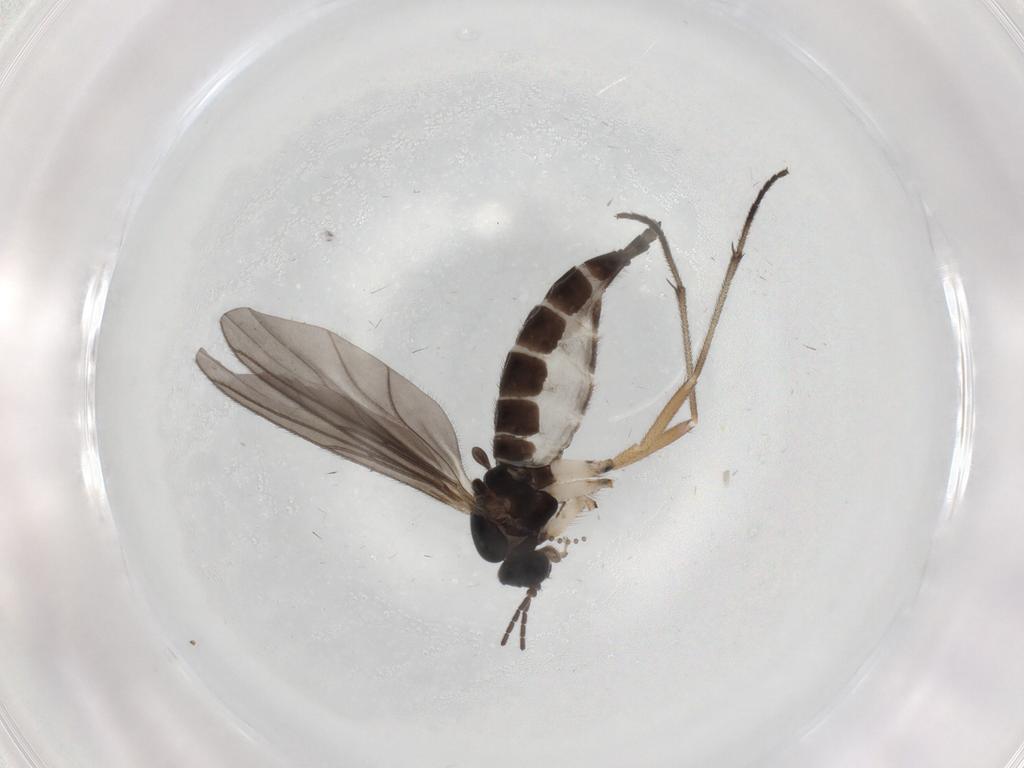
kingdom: Animalia
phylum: Arthropoda
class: Insecta
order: Diptera
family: Sciaridae
